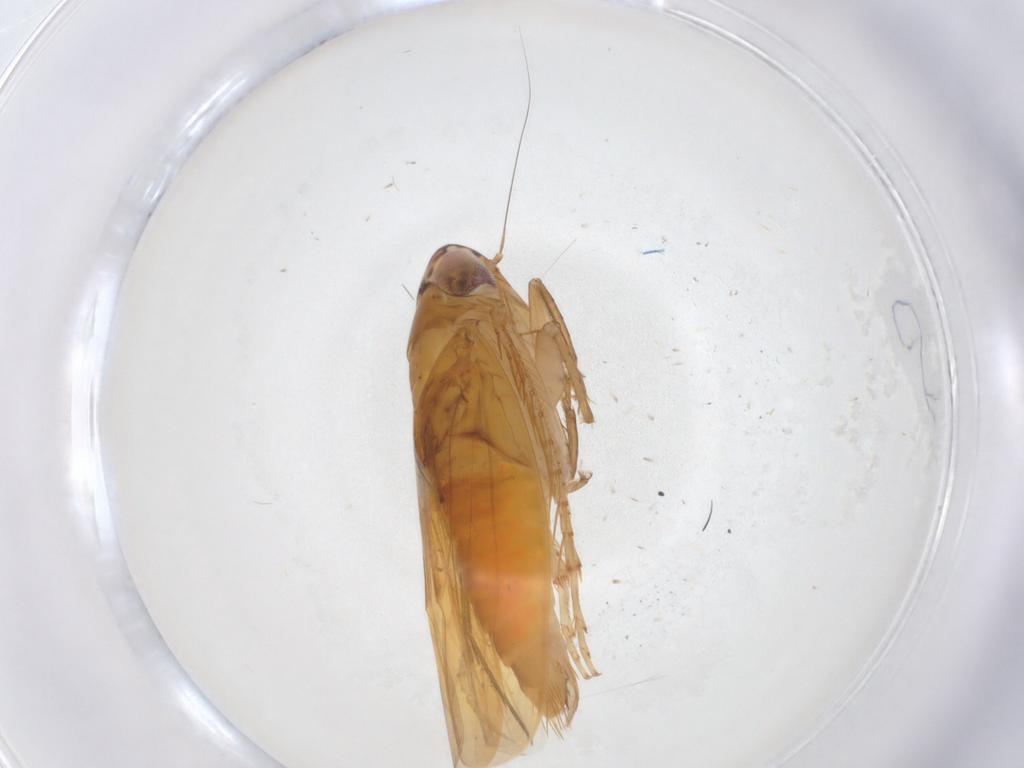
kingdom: Animalia
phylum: Arthropoda
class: Insecta
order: Hemiptera
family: Cicadellidae
